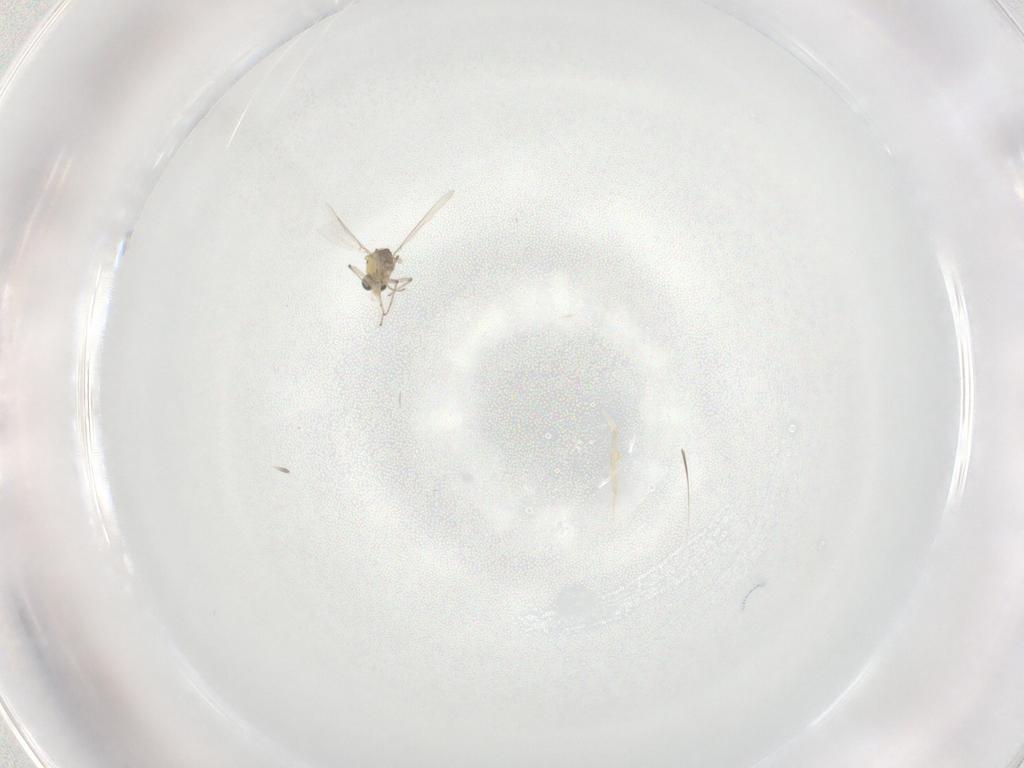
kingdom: Animalia
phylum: Arthropoda
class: Insecta
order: Diptera
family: Chironomidae
